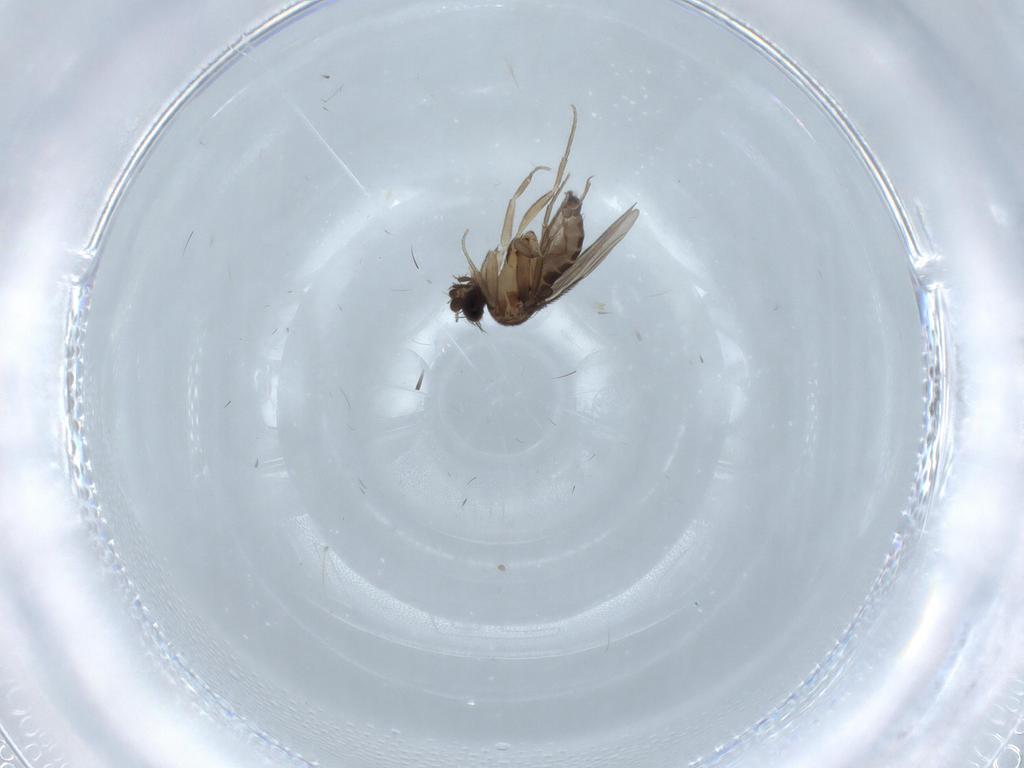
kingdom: Animalia
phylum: Arthropoda
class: Insecta
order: Diptera
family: Phoridae
